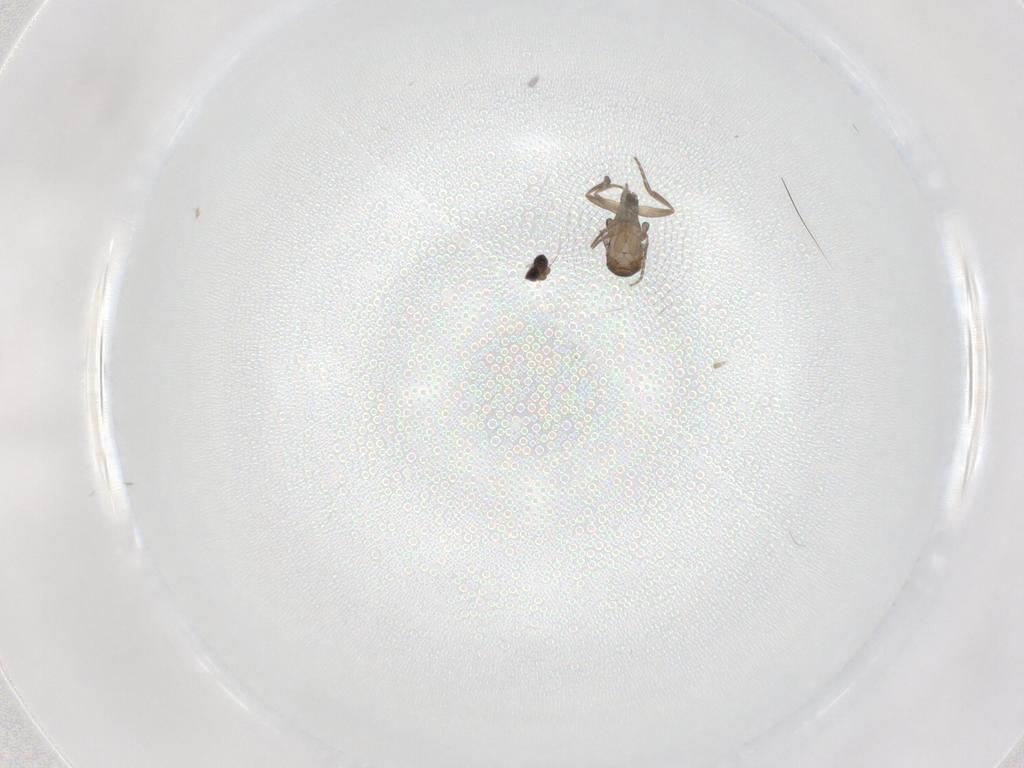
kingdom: Animalia
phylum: Arthropoda
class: Insecta
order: Diptera
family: Phoridae
